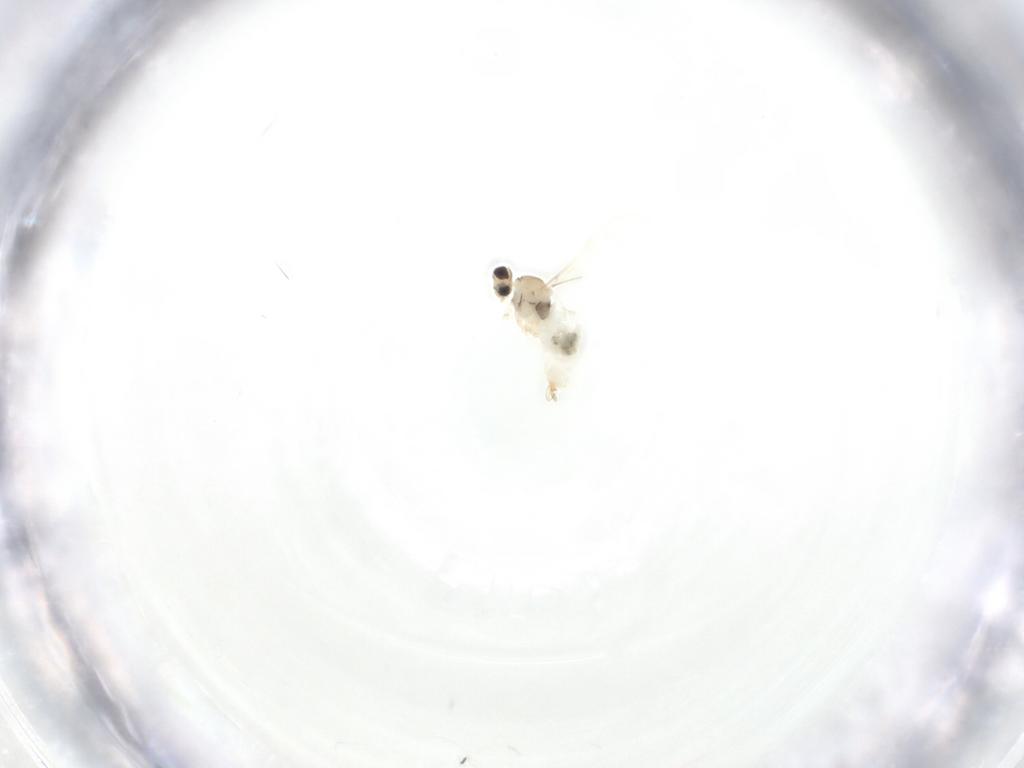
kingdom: Animalia
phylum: Arthropoda
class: Insecta
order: Diptera
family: Cecidomyiidae
